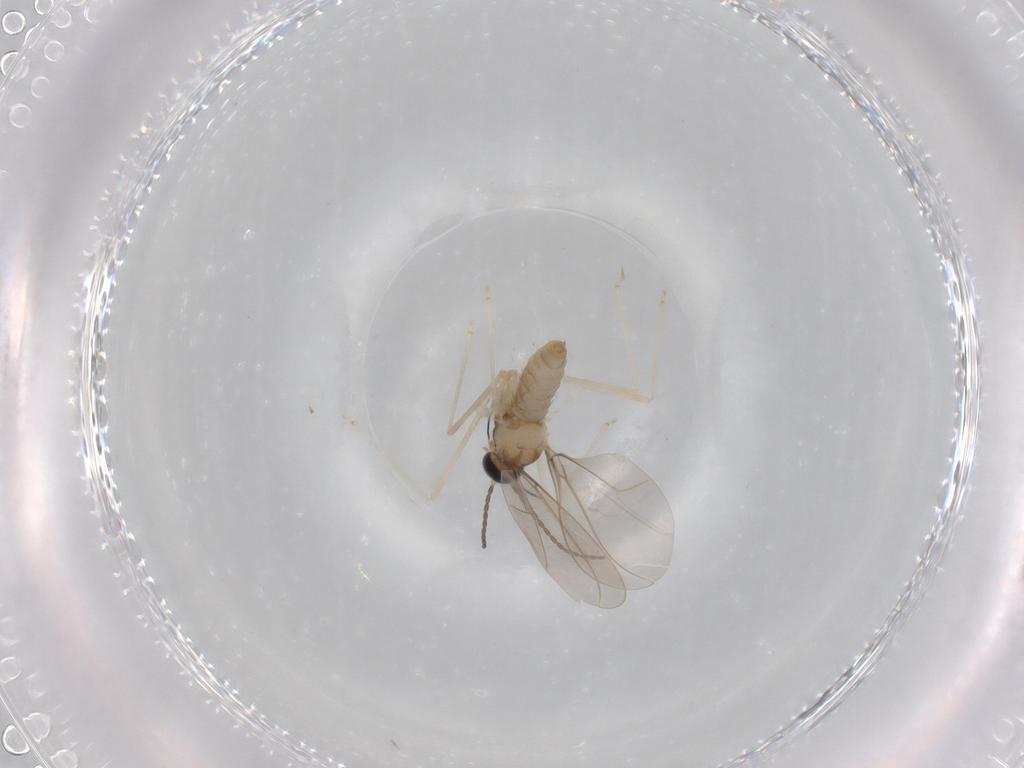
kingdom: Animalia
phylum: Arthropoda
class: Insecta
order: Diptera
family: Cecidomyiidae
